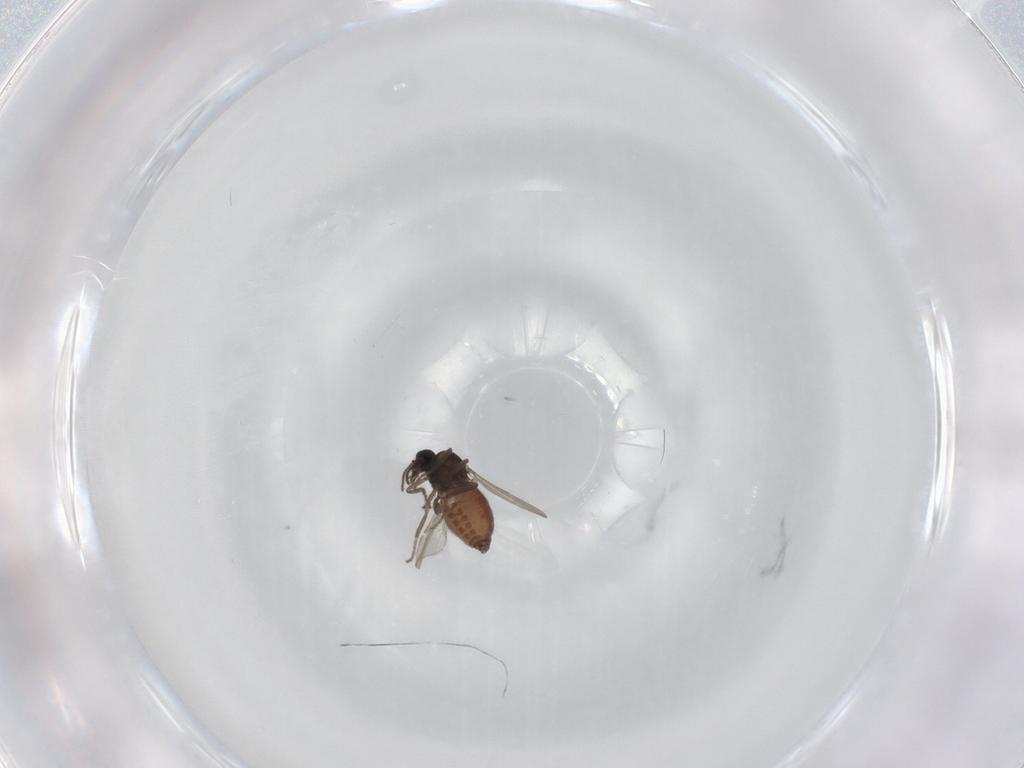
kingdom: Animalia
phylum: Arthropoda
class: Insecta
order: Diptera
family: Ceratopogonidae
